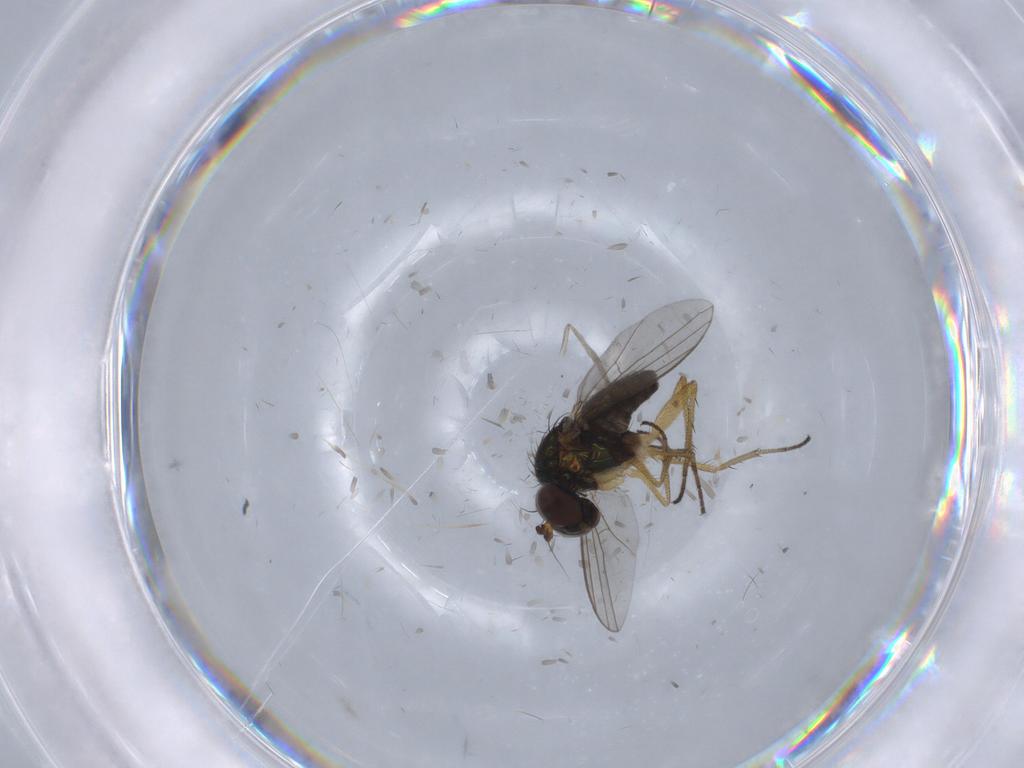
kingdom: Animalia
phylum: Arthropoda
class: Insecta
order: Diptera
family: Psychodidae
